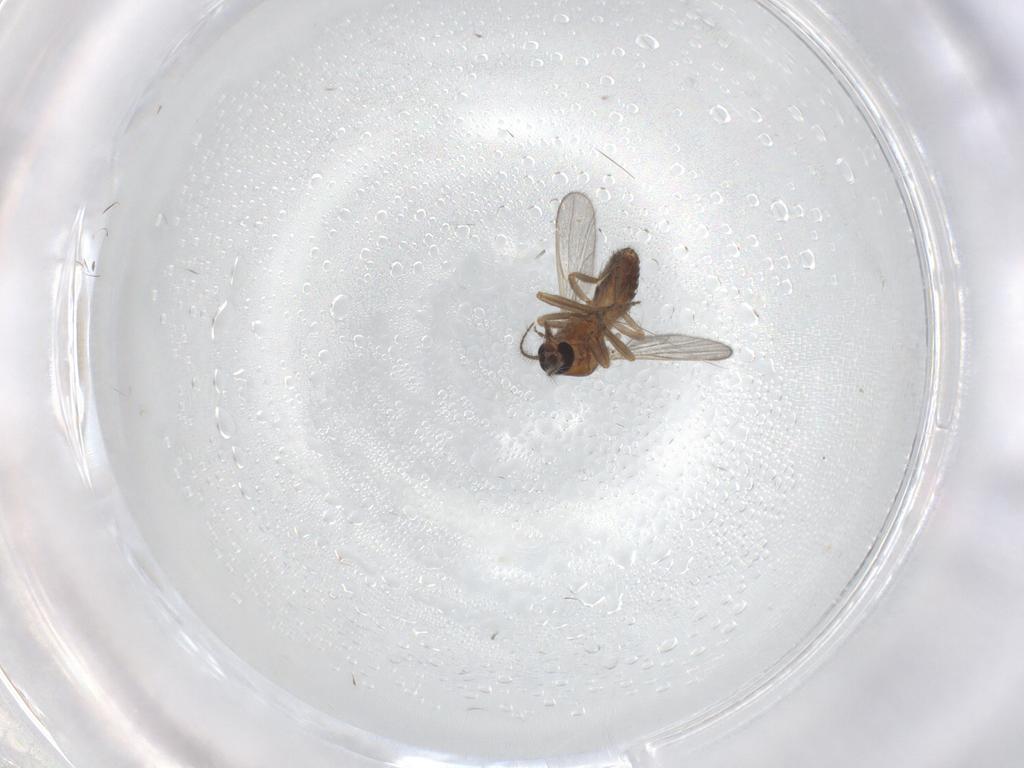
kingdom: Animalia
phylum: Arthropoda
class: Insecta
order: Diptera
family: Ceratopogonidae
